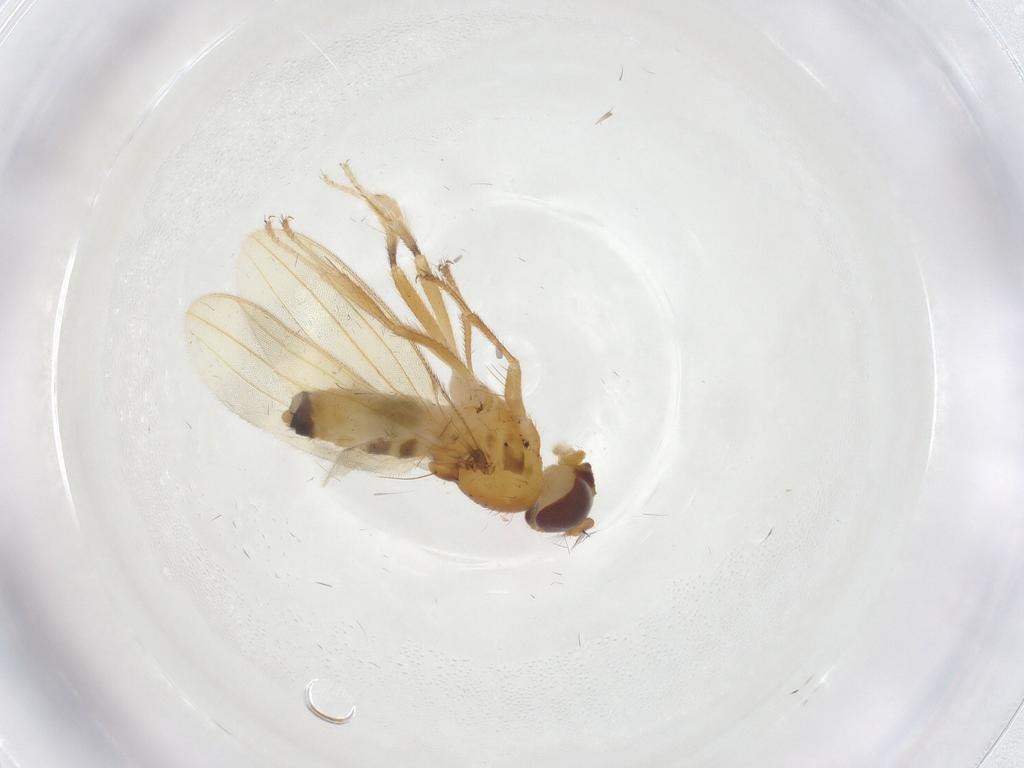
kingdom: Animalia
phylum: Arthropoda
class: Insecta
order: Diptera
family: Periscelididae
